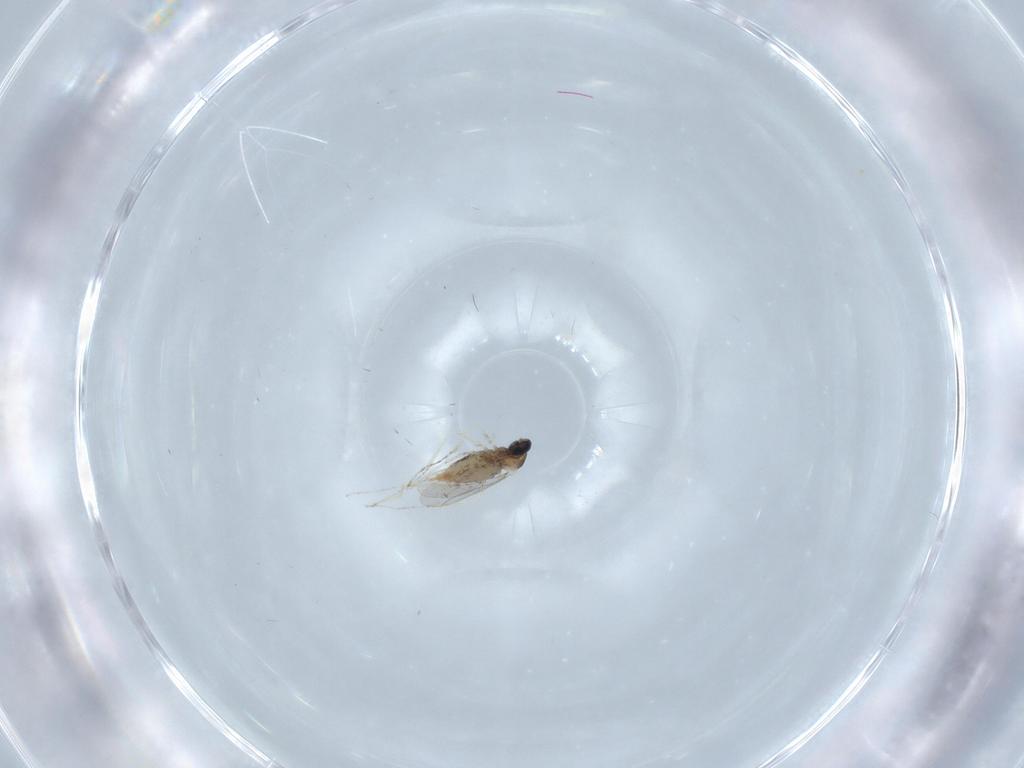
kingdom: Animalia
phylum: Arthropoda
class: Insecta
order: Diptera
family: Cecidomyiidae
